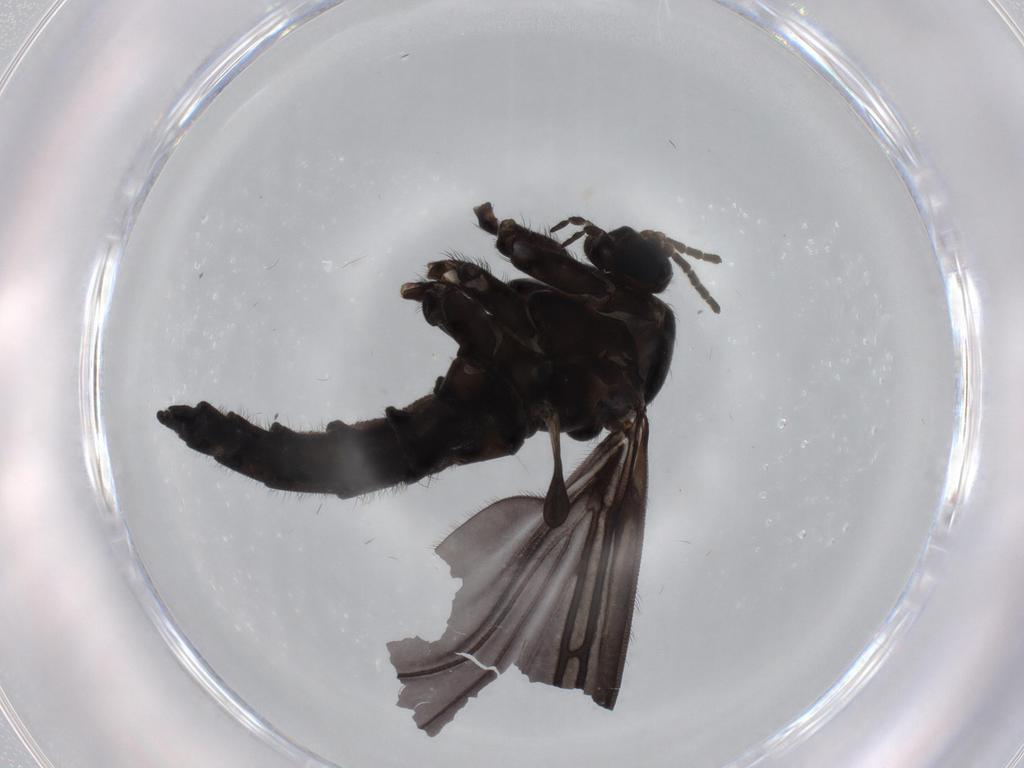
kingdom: Animalia
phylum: Arthropoda
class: Insecta
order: Diptera
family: Sciaridae
